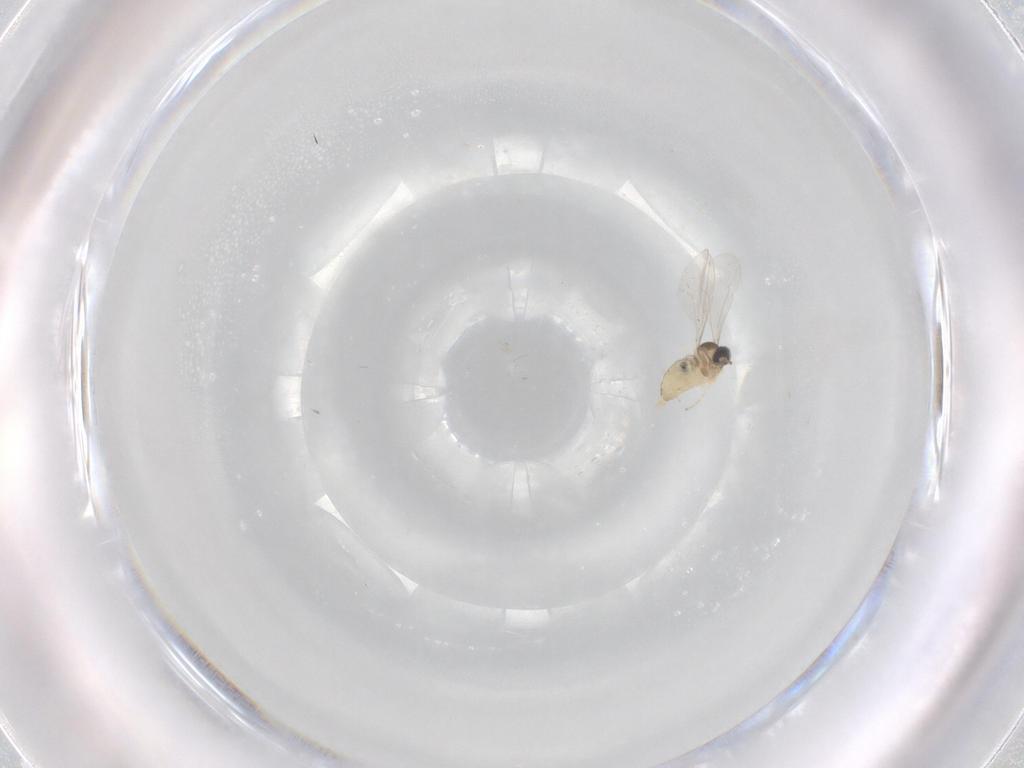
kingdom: Animalia
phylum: Arthropoda
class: Insecta
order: Diptera
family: Cecidomyiidae
